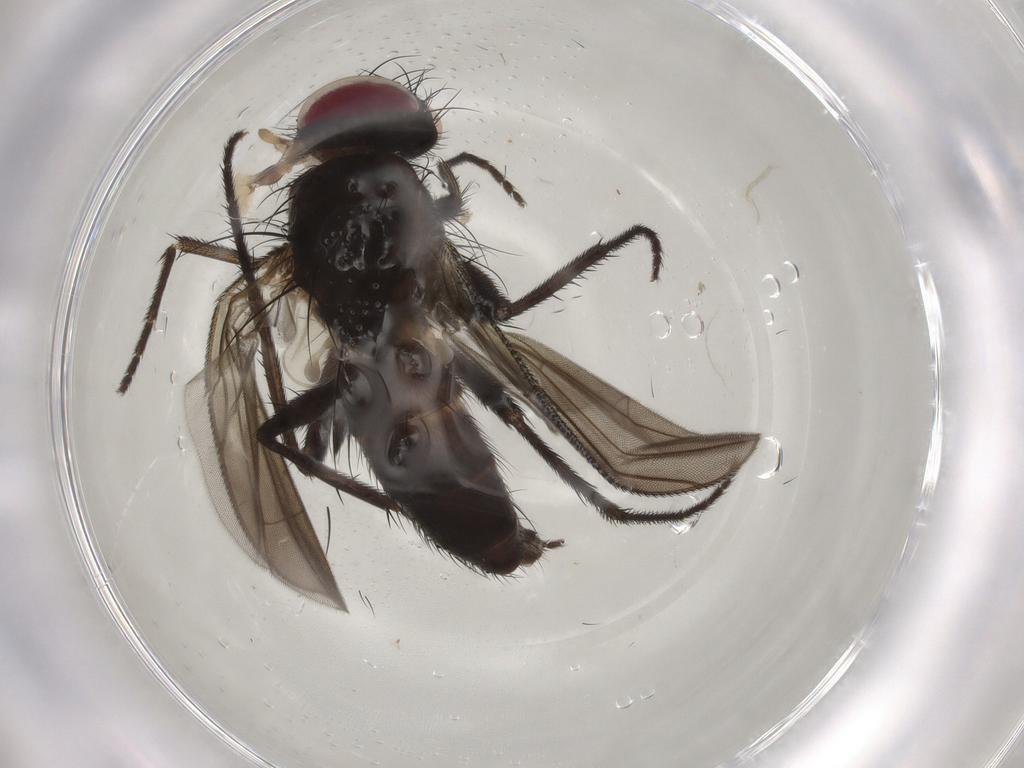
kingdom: Animalia
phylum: Arthropoda
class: Insecta
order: Diptera
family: Tachinidae
